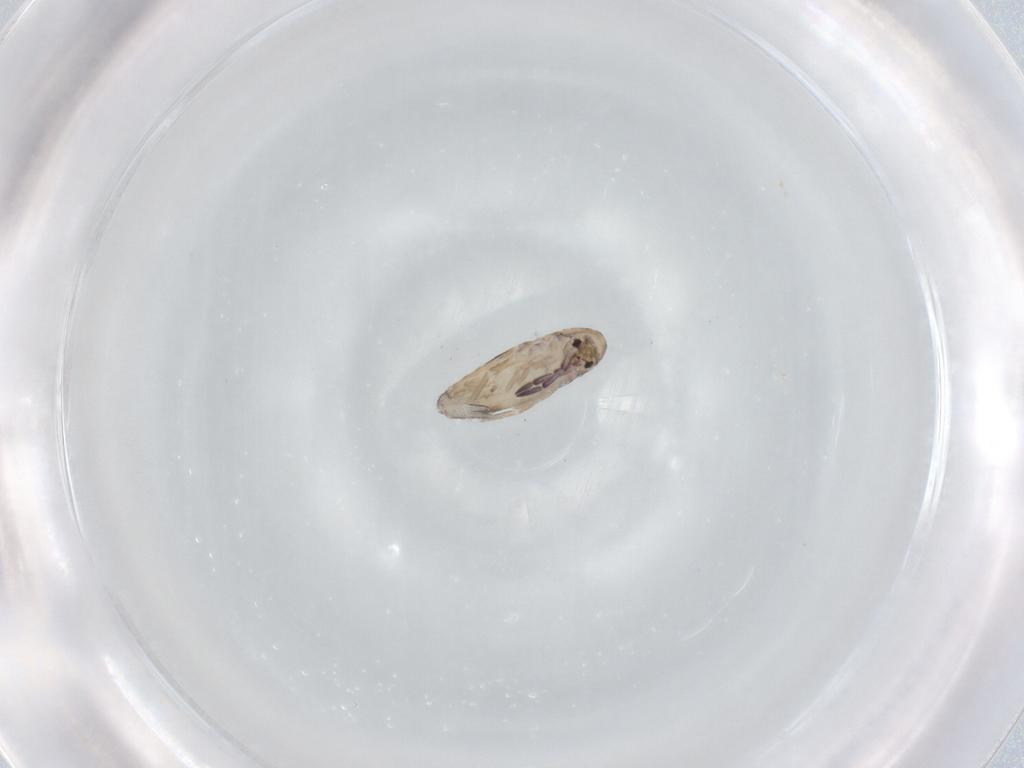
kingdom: Animalia
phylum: Arthropoda
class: Collembola
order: Entomobryomorpha
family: Entomobryidae
